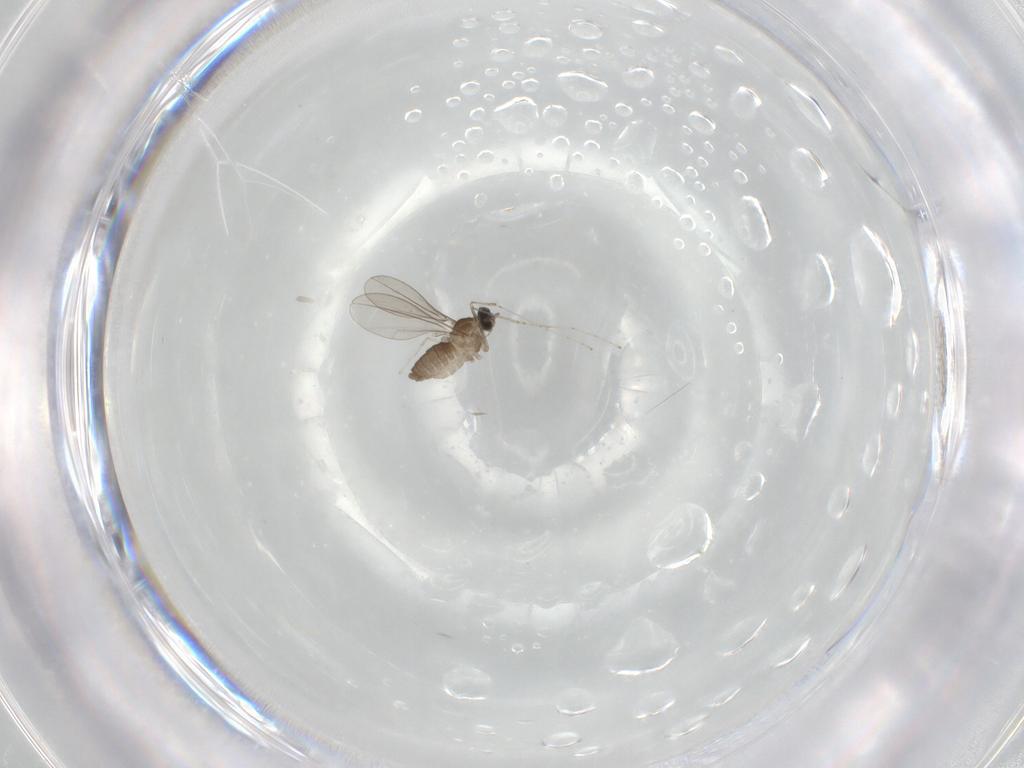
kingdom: Animalia
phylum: Arthropoda
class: Insecta
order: Diptera
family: Cecidomyiidae
